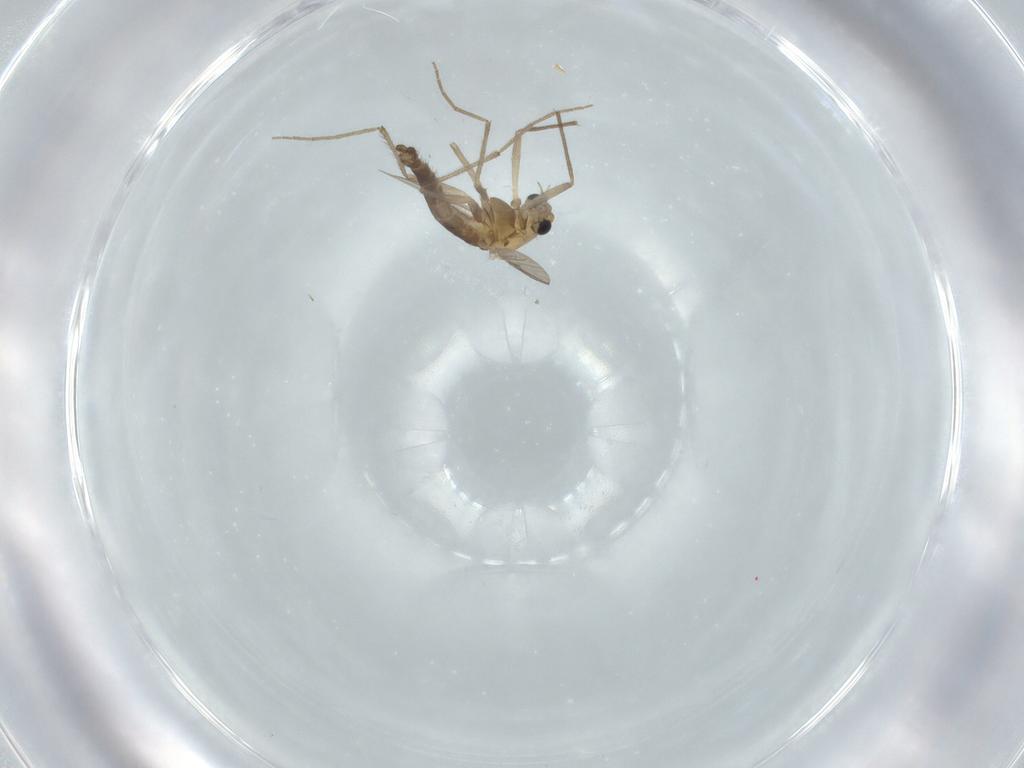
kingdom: Animalia
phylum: Arthropoda
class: Insecta
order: Diptera
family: Chironomidae
